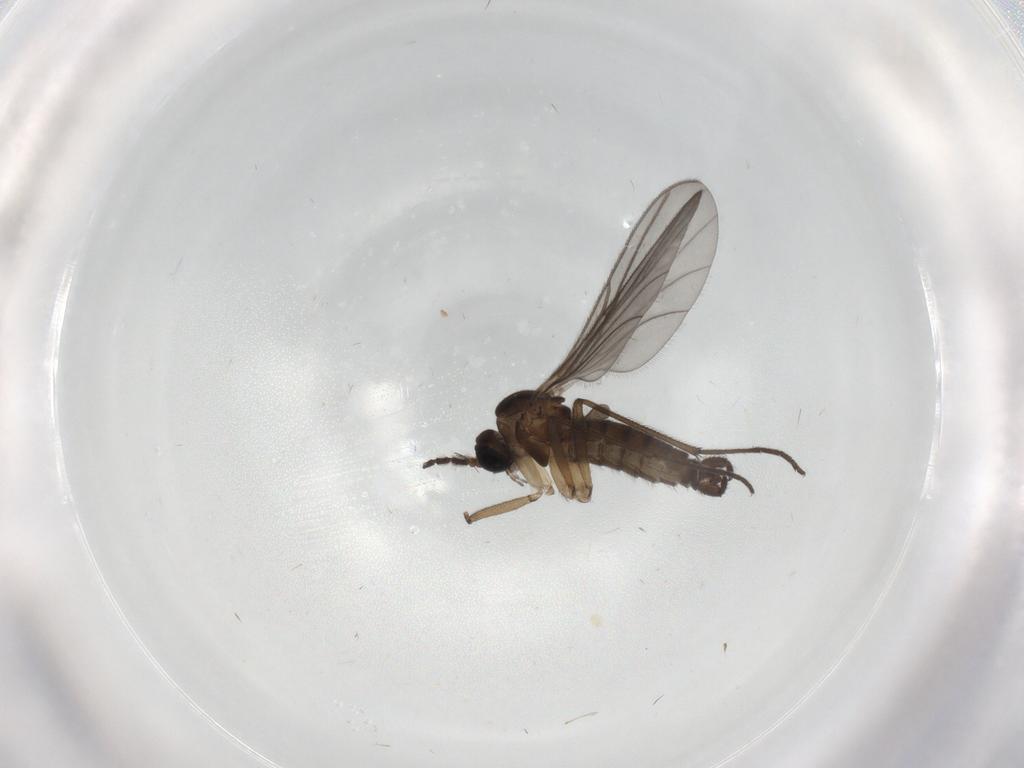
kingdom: Animalia
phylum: Arthropoda
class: Insecta
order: Diptera
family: Sciaridae
